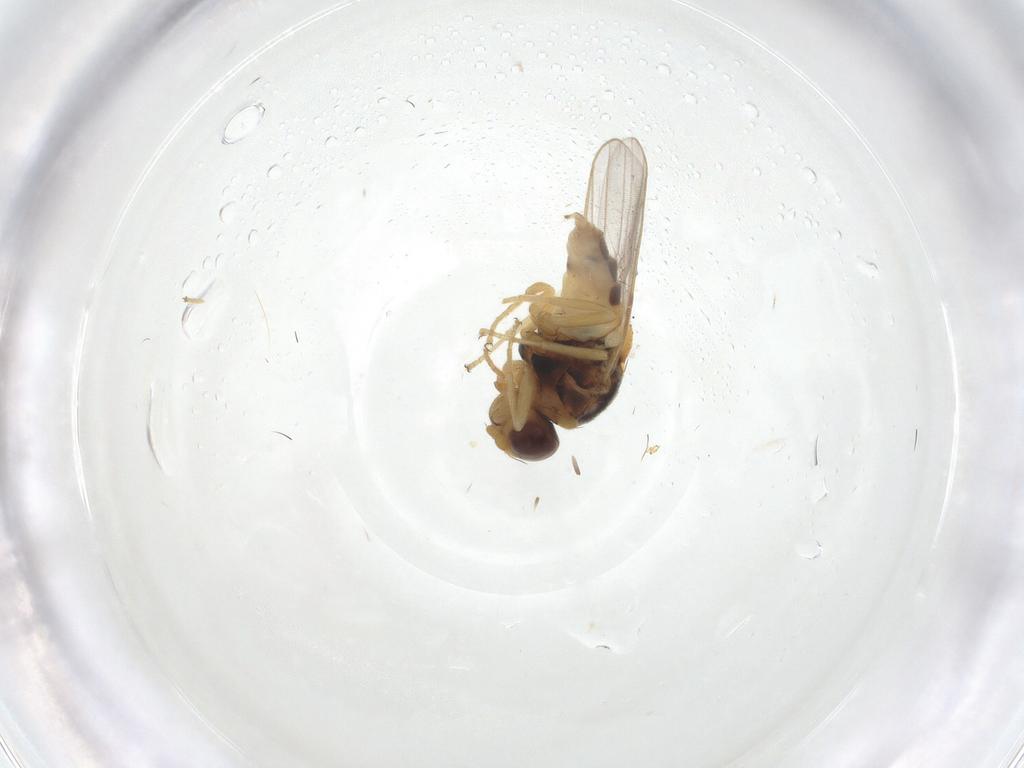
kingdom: Animalia
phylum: Arthropoda
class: Insecta
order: Diptera
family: Chloropidae
